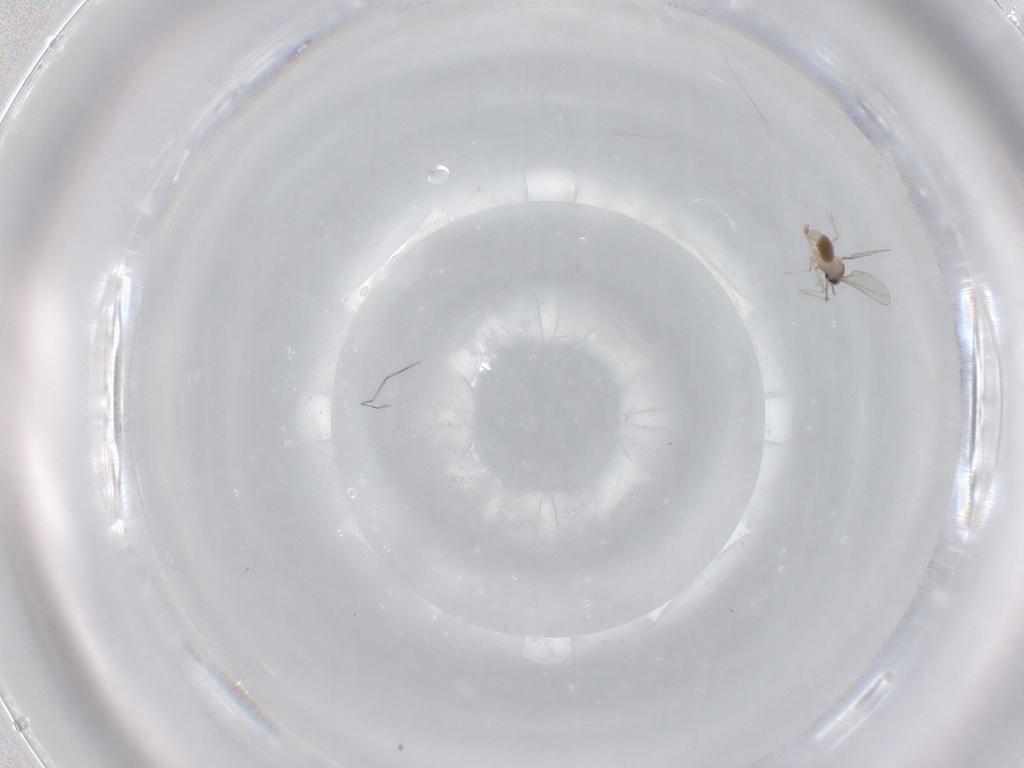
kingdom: Animalia
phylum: Arthropoda
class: Insecta
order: Diptera
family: Cecidomyiidae
